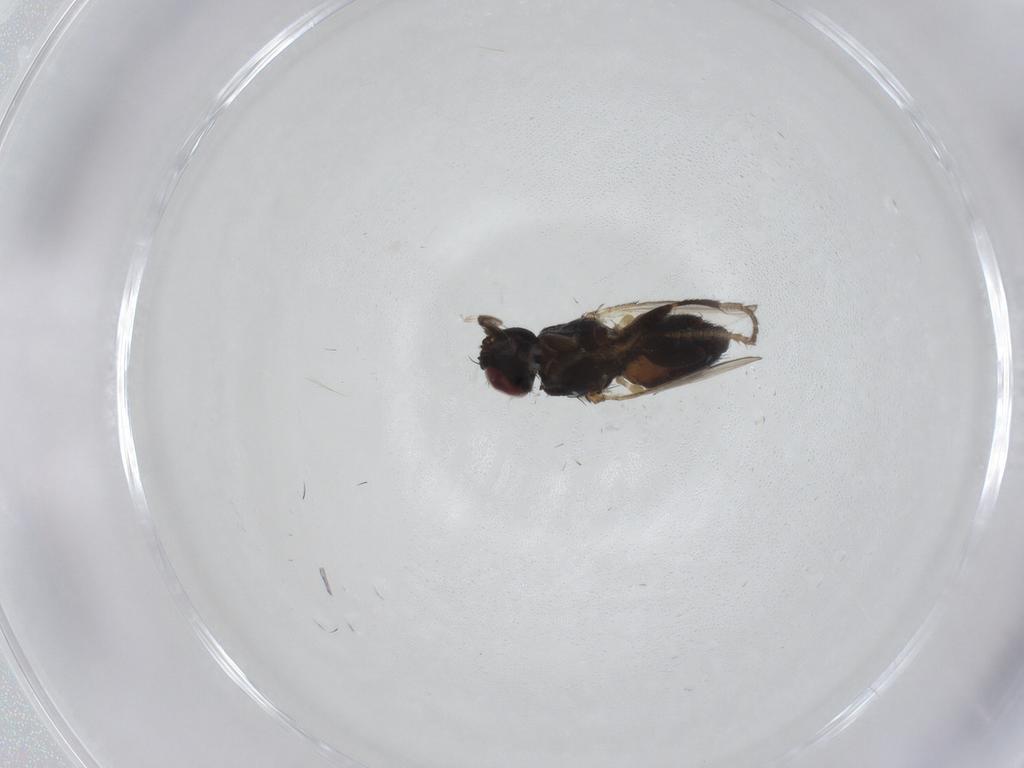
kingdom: Animalia
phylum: Arthropoda
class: Insecta
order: Diptera
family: Milichiidae
